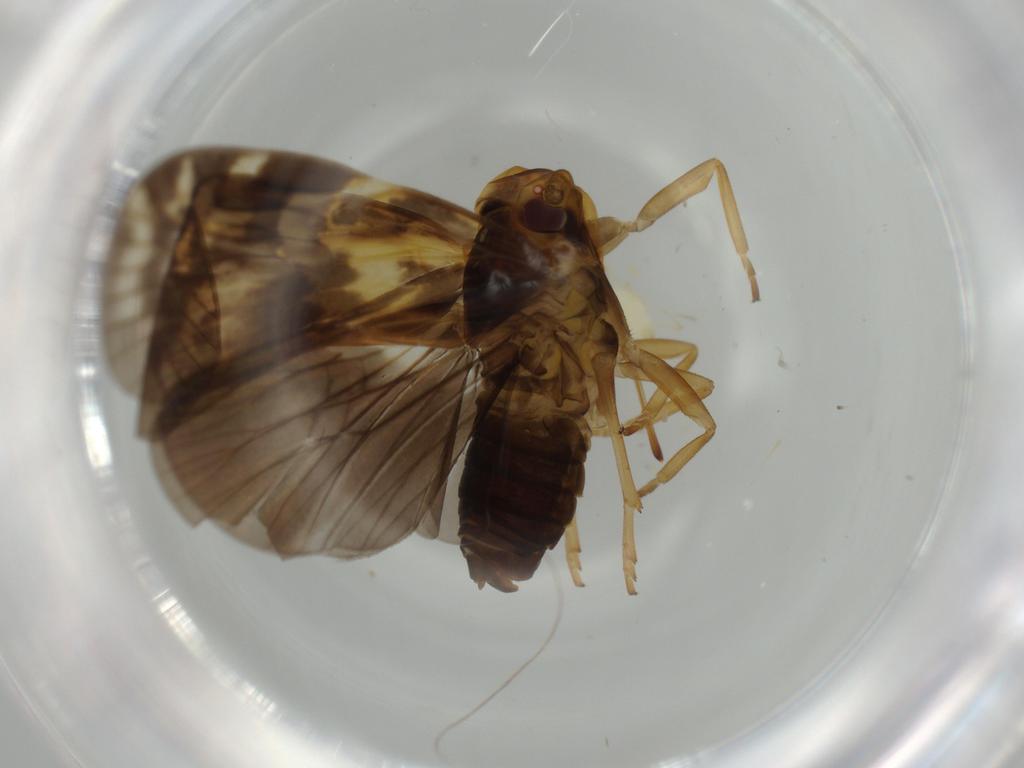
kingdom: Animalia
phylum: Arthropoda
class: Insecta
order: Hemiptera
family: Cixiidae
